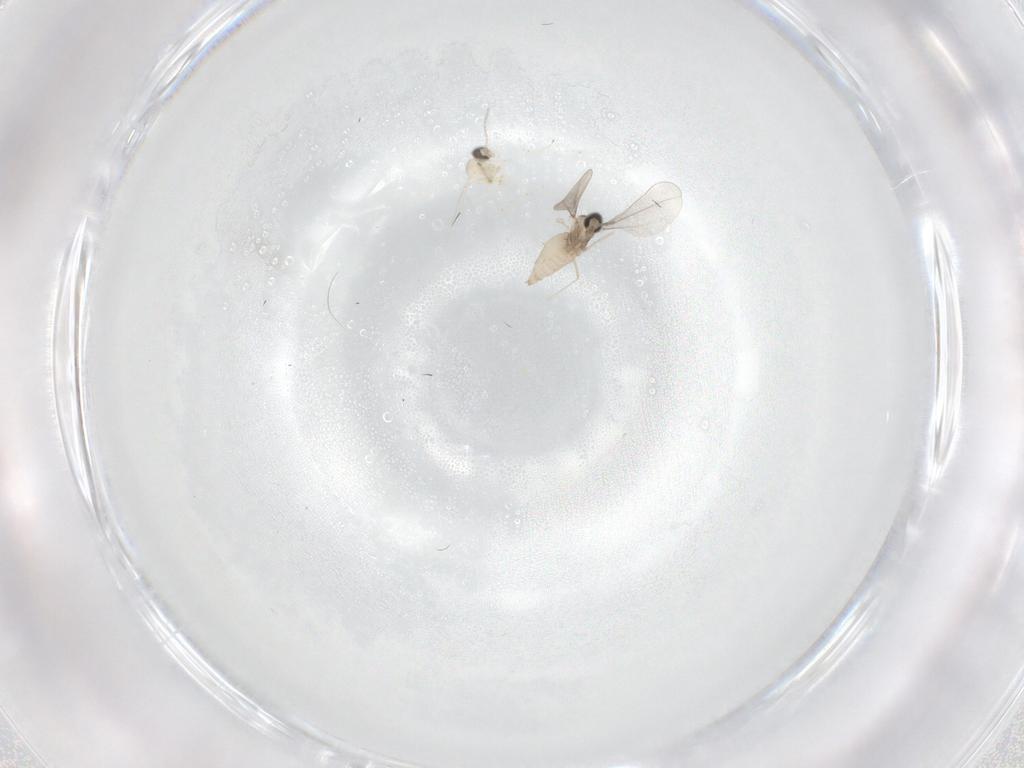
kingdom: Animalia
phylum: Arthropoda
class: Insecta
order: Diptera
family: Cecidomyiidae
